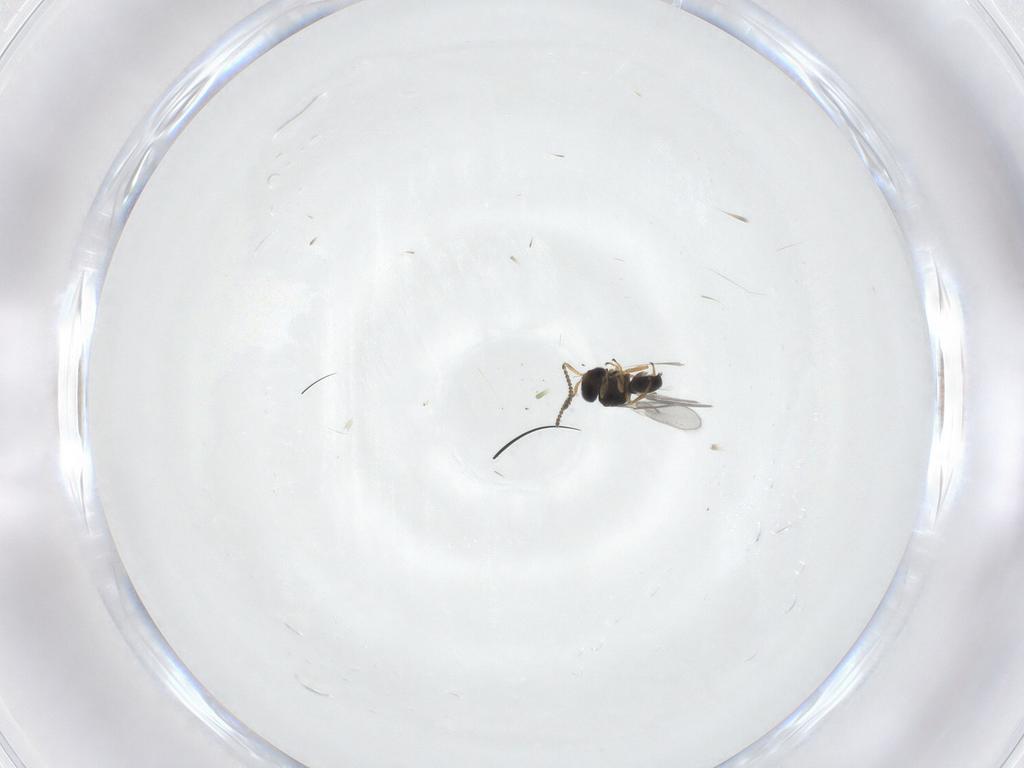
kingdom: Animalia
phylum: Arthropoda
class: Insecta
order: Hymenoptera
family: Scelionidae
